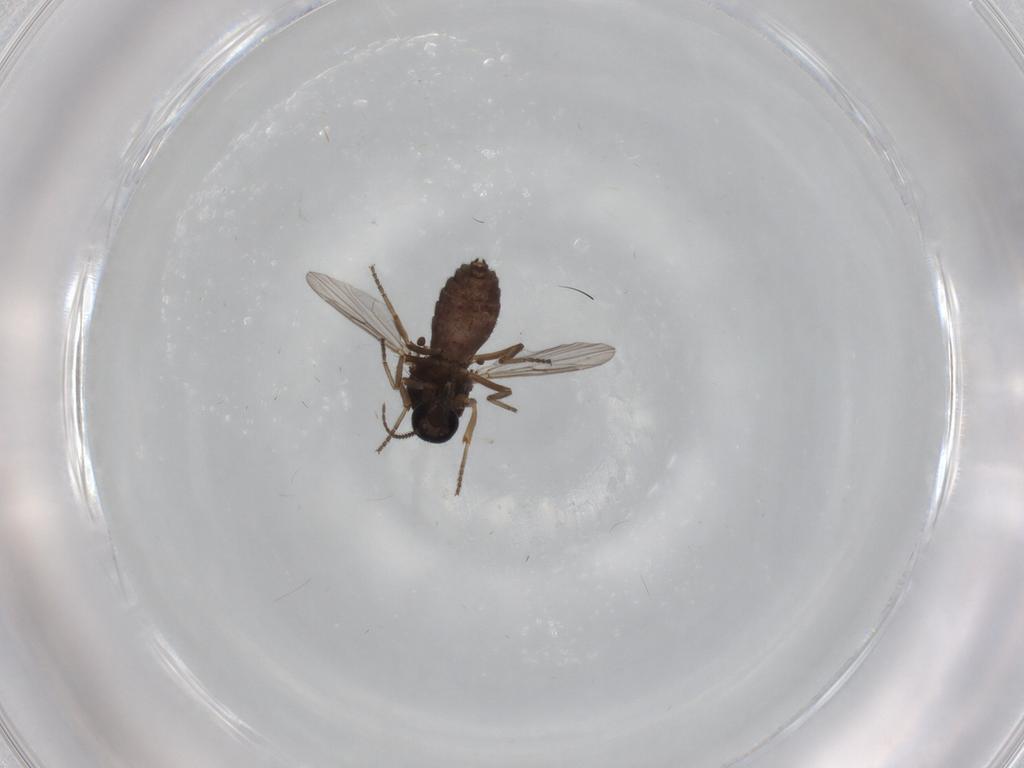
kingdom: Animalia
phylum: Arthropoda
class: Insecta
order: Diptera
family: Ceratopogonidae
